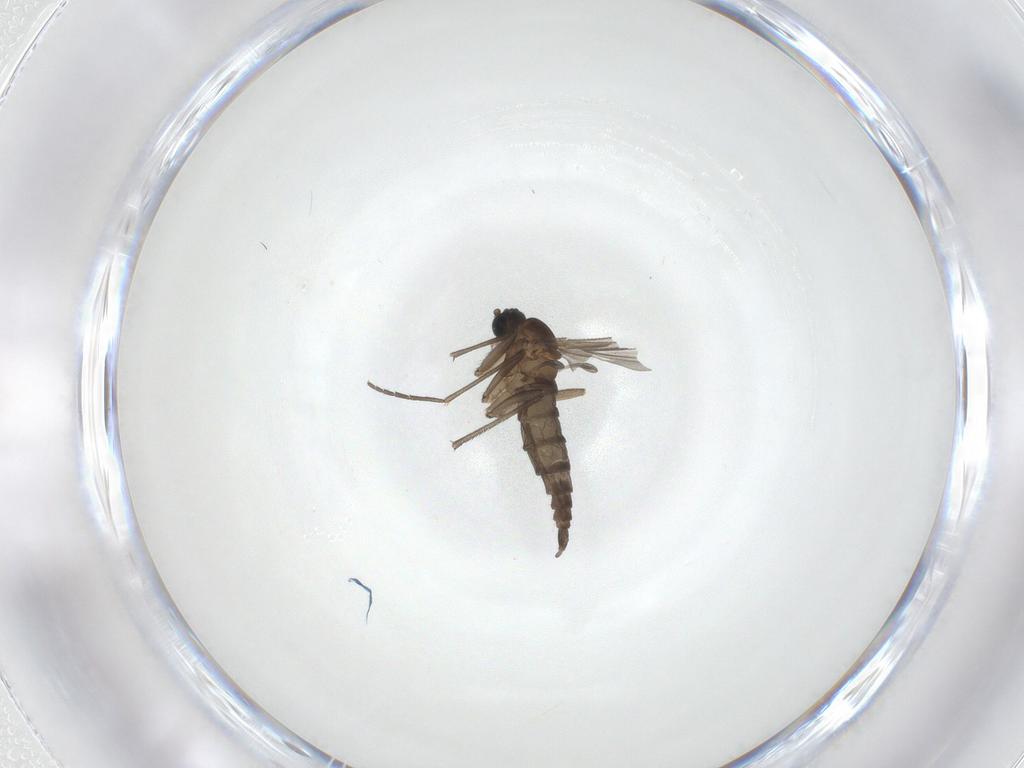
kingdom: Animalia
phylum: Arthropoda
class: Insecta
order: Diptera
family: Sciaridae
